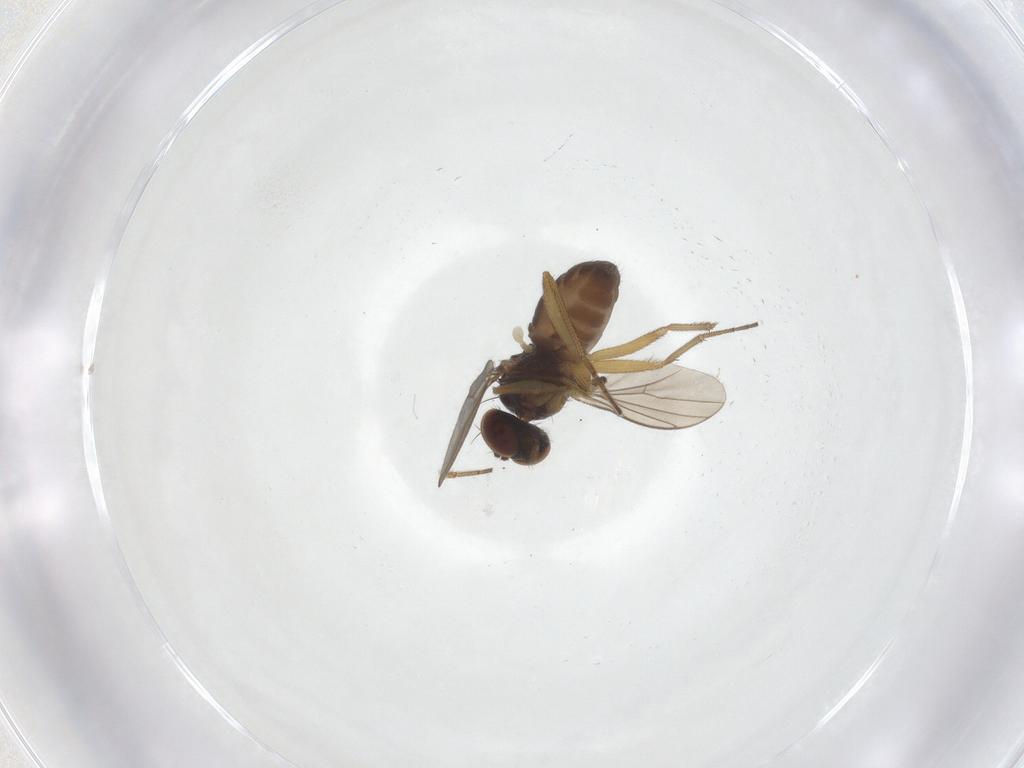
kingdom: Animalia
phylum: Arthropoda
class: Insecta
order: Diptera
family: Dolichopodidae
